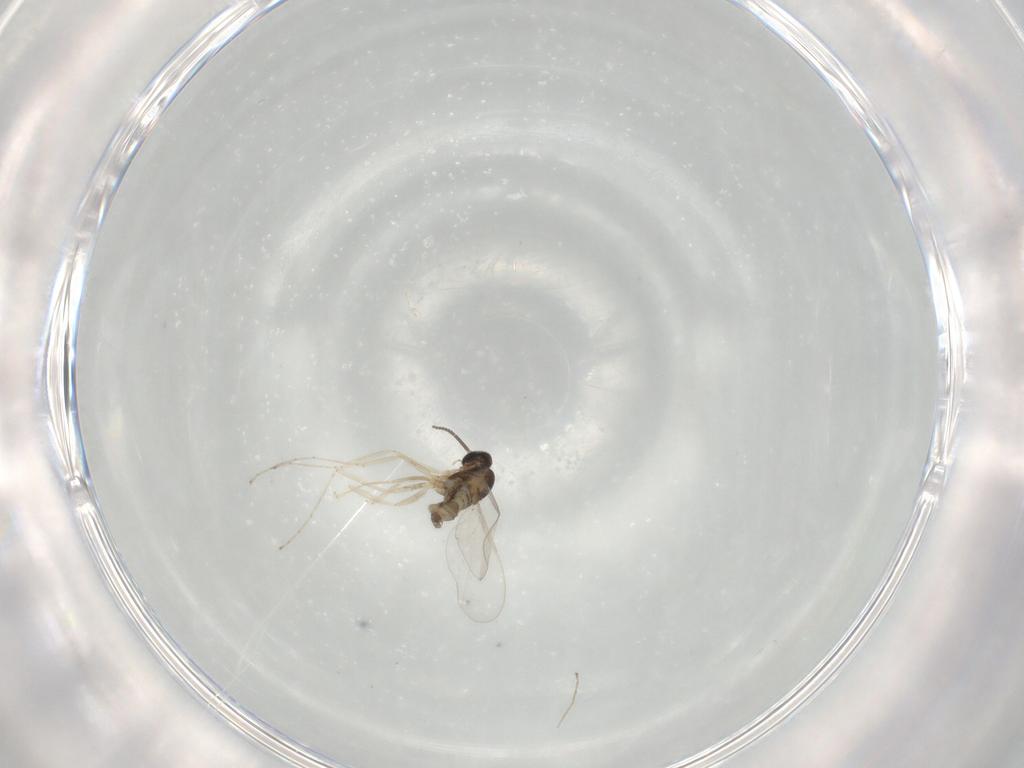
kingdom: Animalia
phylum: Arthropoda
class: Insecta
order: Diptera
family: Cecidomyiidae
